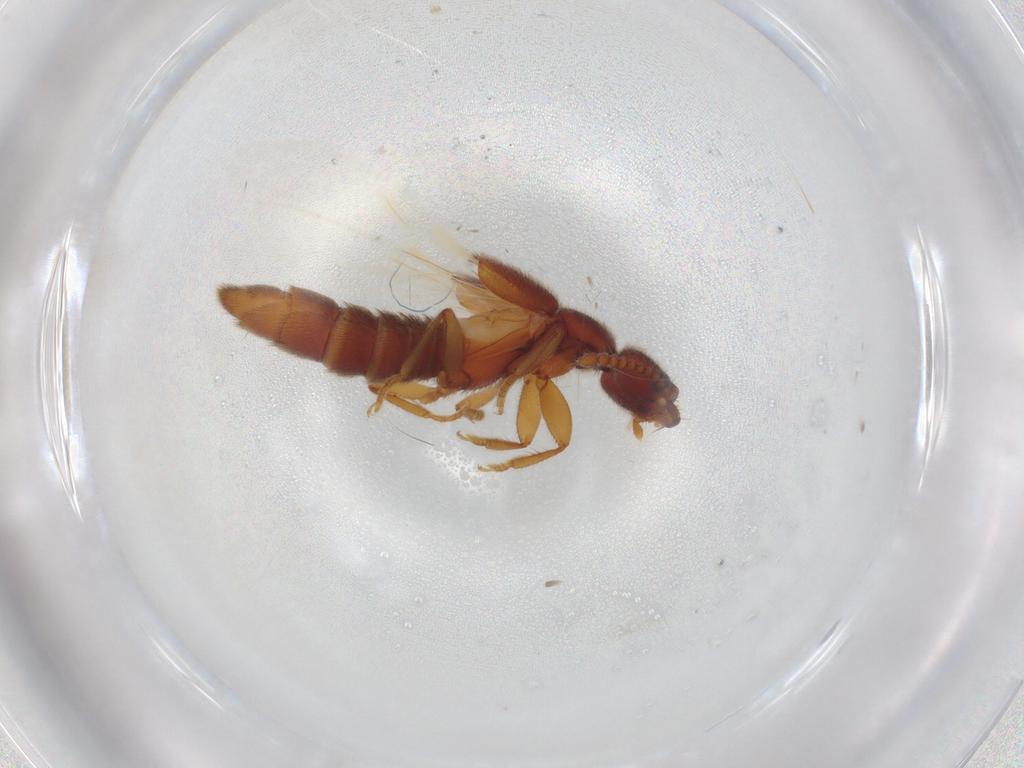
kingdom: Animalia
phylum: Arthropoda
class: Insecta
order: Coleoptera
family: Staphylinidae
